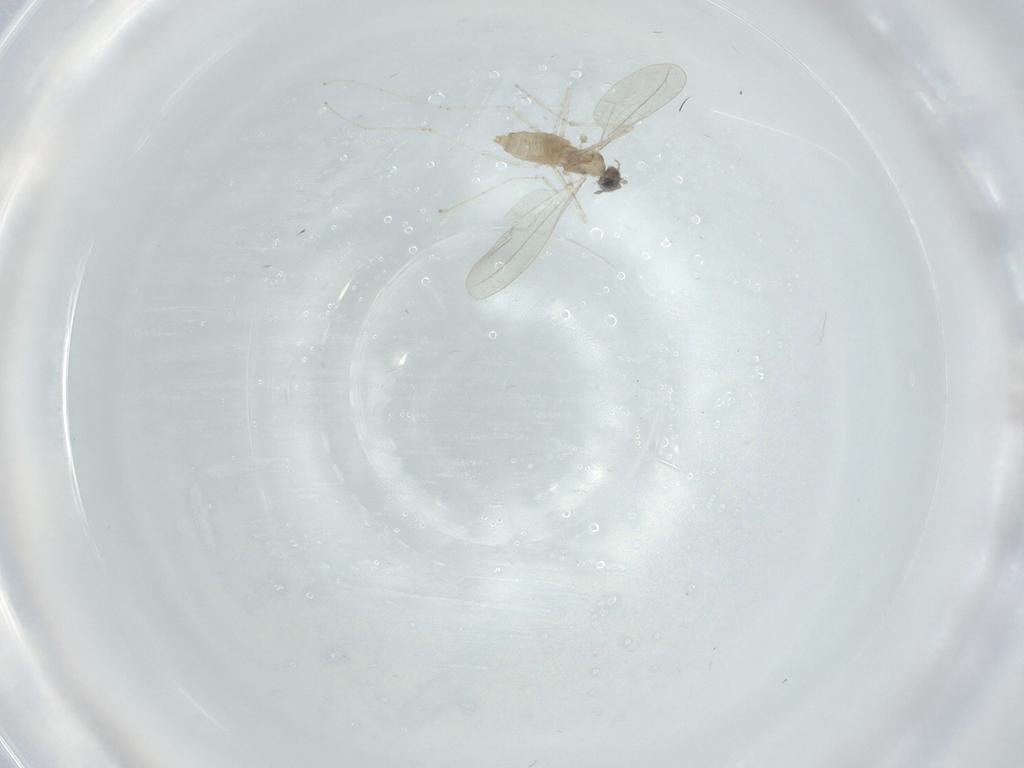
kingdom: Animalia
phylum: Arthropoda
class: Insecta
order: Diptera
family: Cecidomyiidae
